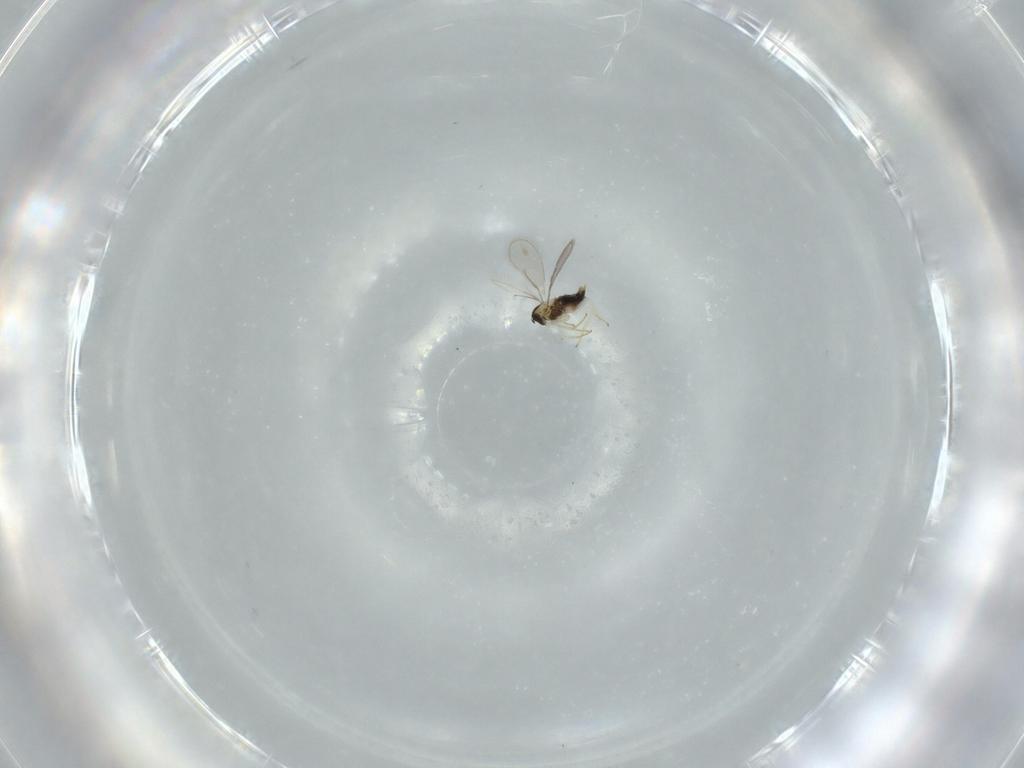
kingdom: Animalia
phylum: Arthropoda
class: Insecta
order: Hymenoptera
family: Aphelinidae
